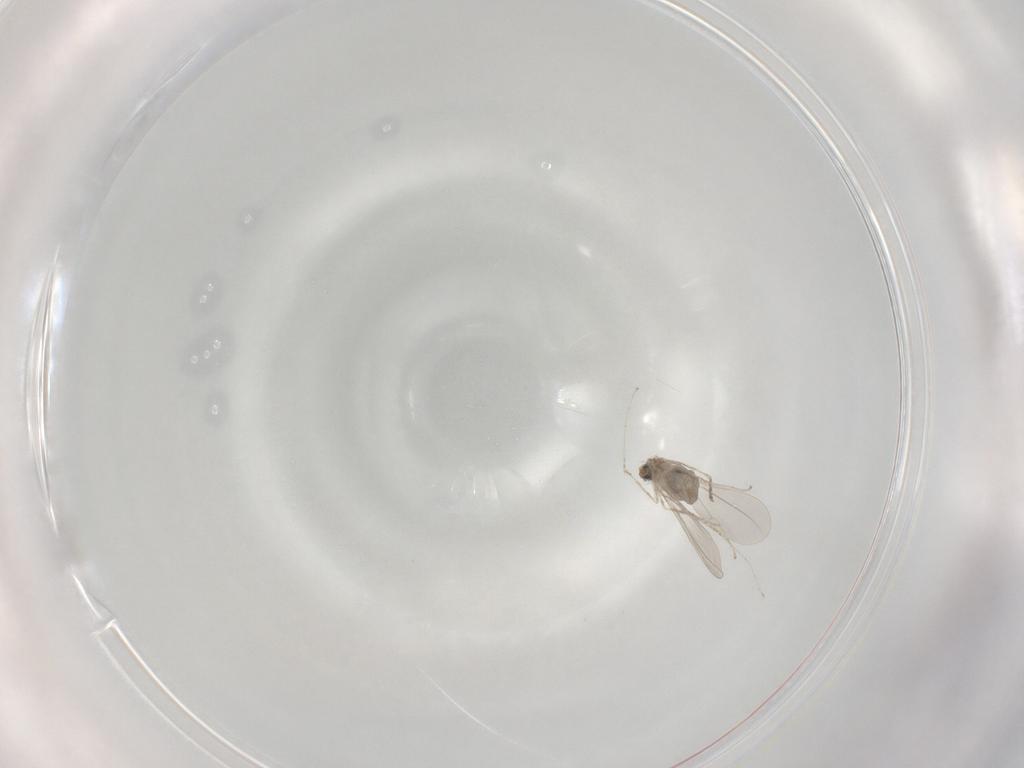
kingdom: Animalia
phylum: Arthropoda
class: Insecta
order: Diptera
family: Cecidomyiidae
